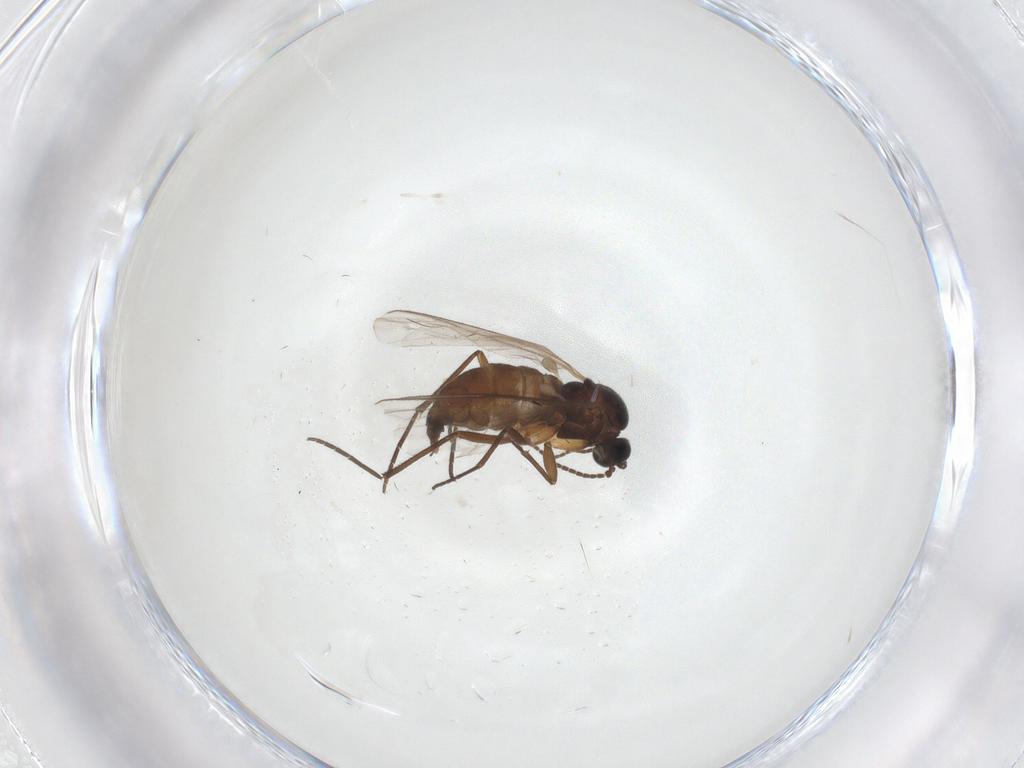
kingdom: Animalia
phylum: Arthropoda
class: Insecta
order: Diptera
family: Sciaridae
